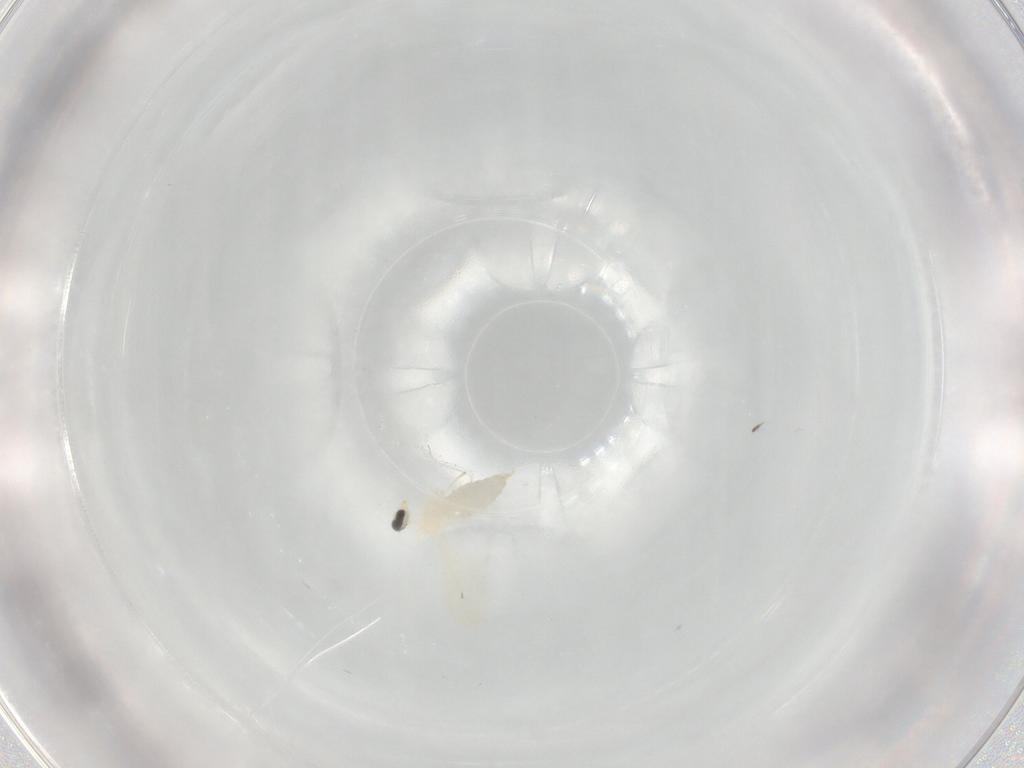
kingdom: Animalia
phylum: Arthropoda
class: Insecta
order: Diptera
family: Cecidomyiidae
